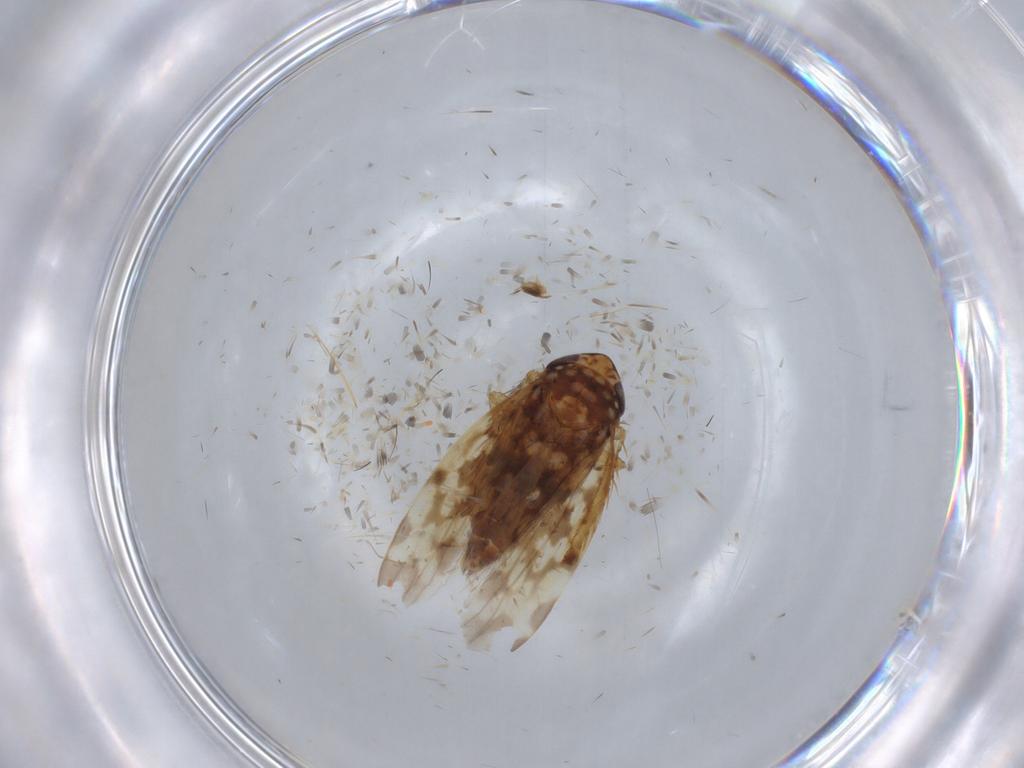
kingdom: Animalia
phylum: Arthropoda
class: Insecta
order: Hemiptera
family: Cicadellidae
